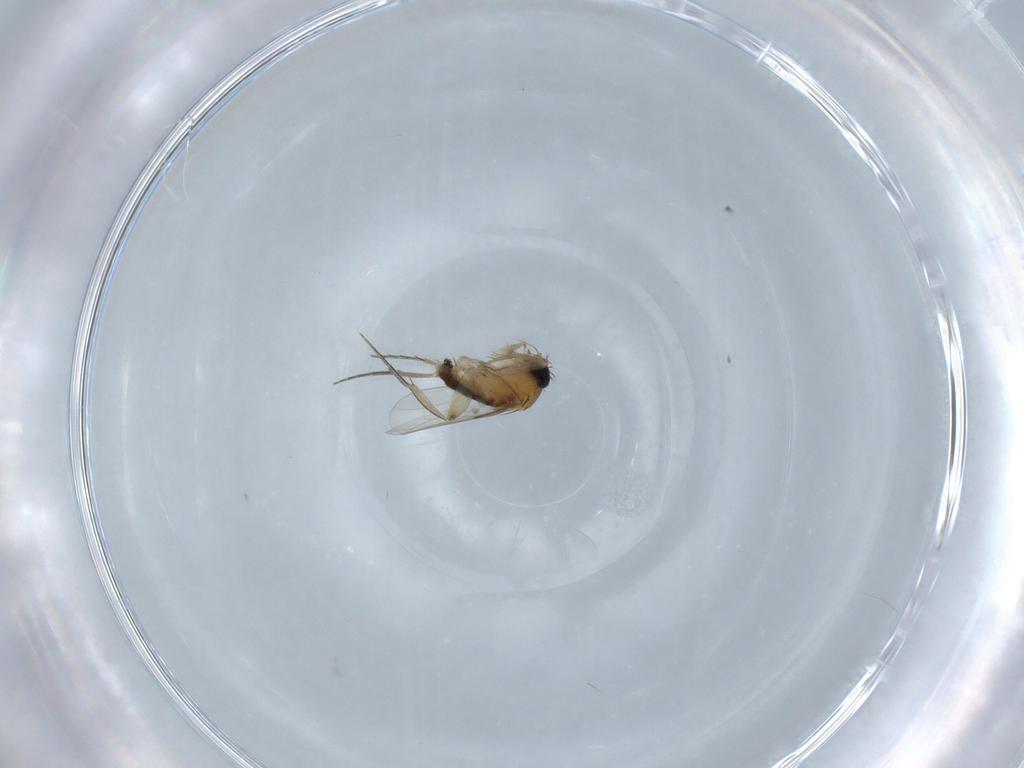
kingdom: Animalia
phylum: Arthropoda
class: Insecta
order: Diptera
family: Phoridae
